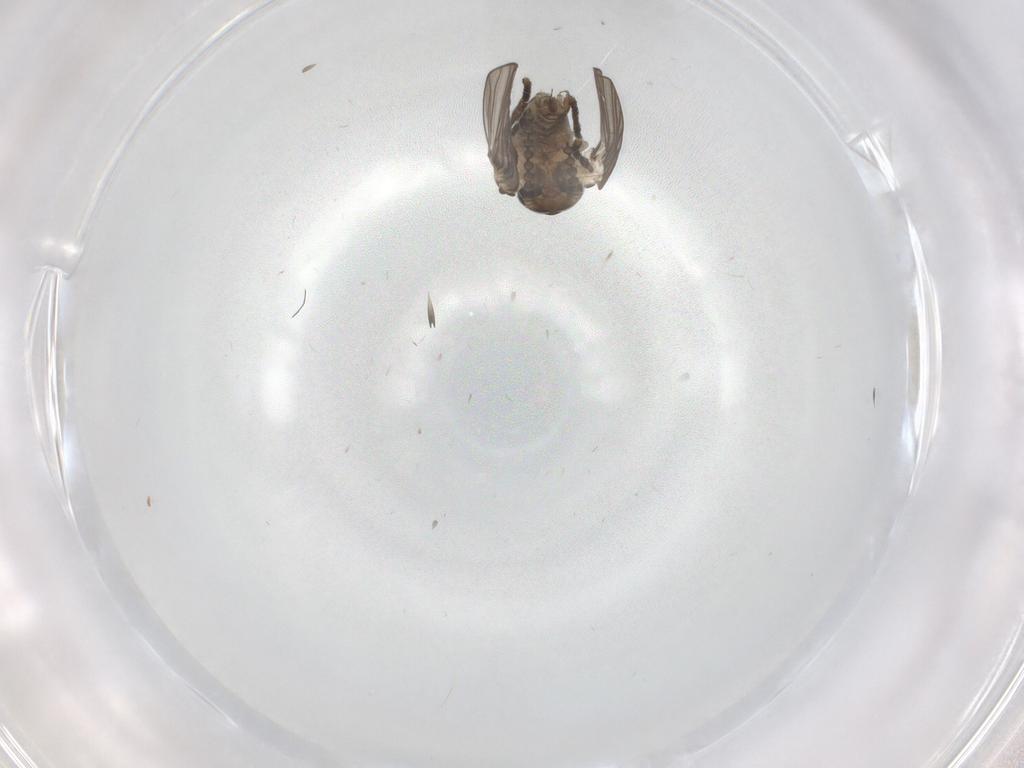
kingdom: Animalia
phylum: Arthropoda
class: Insecta
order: Diptera
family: Psychodidae
